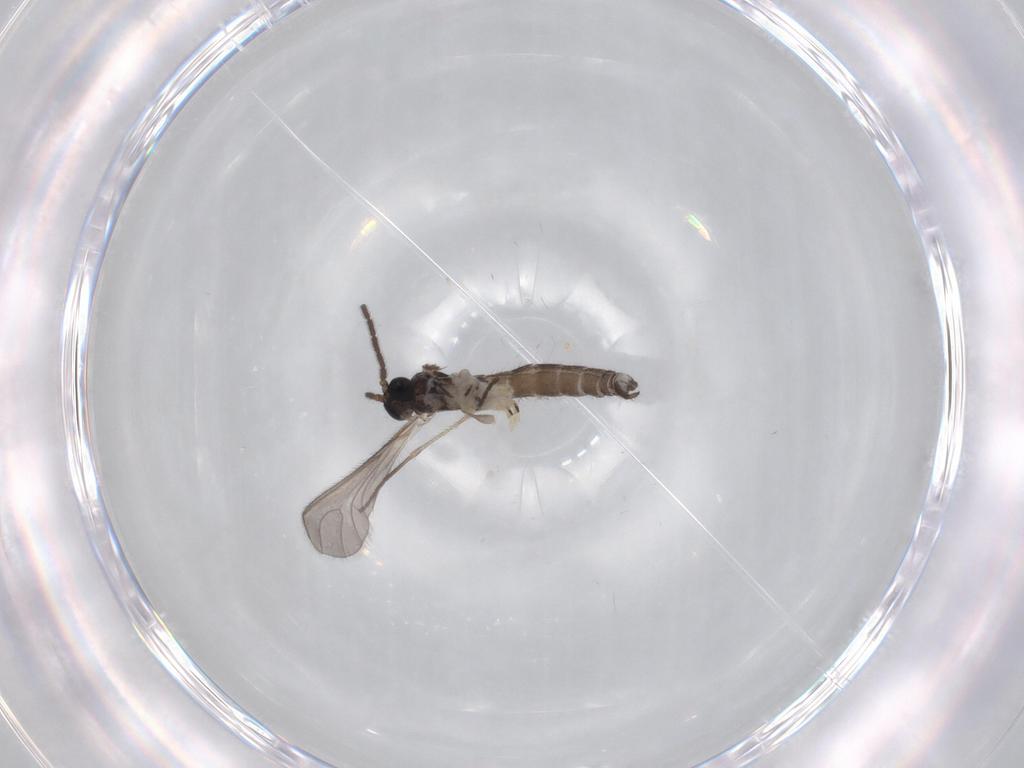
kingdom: Animalia
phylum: Arthropoda
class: Insecta
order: Diptera
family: Sciaridae
